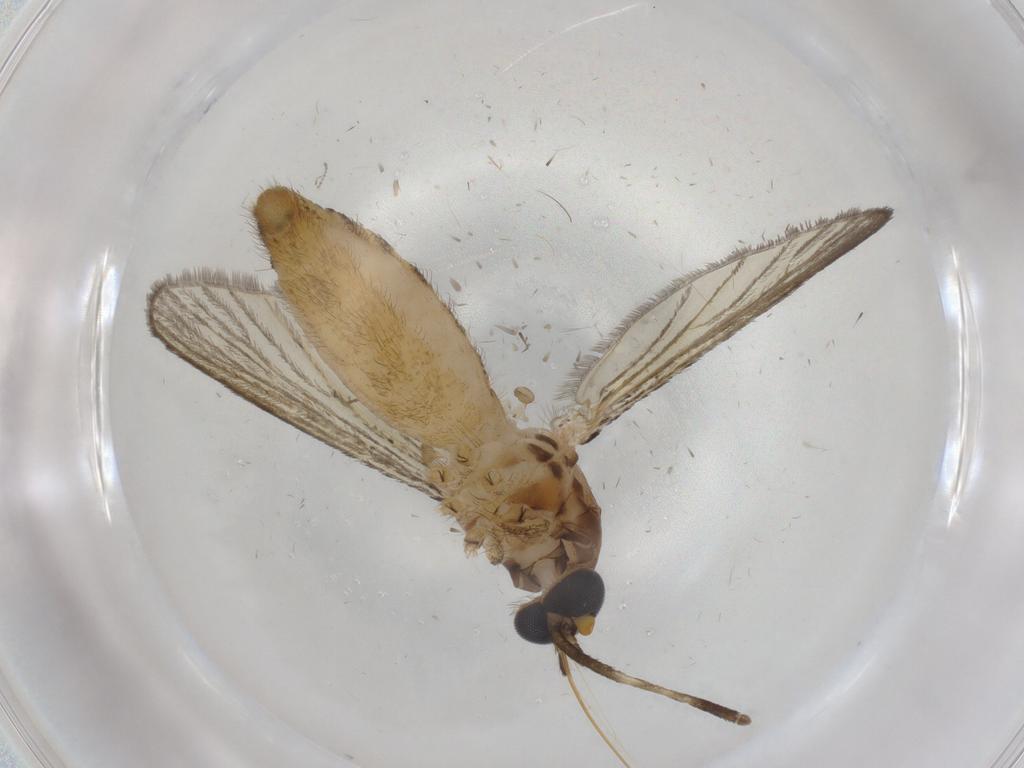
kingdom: Animalia
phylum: Arthropoda
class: Insecta
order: Diptera
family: Culicidae
